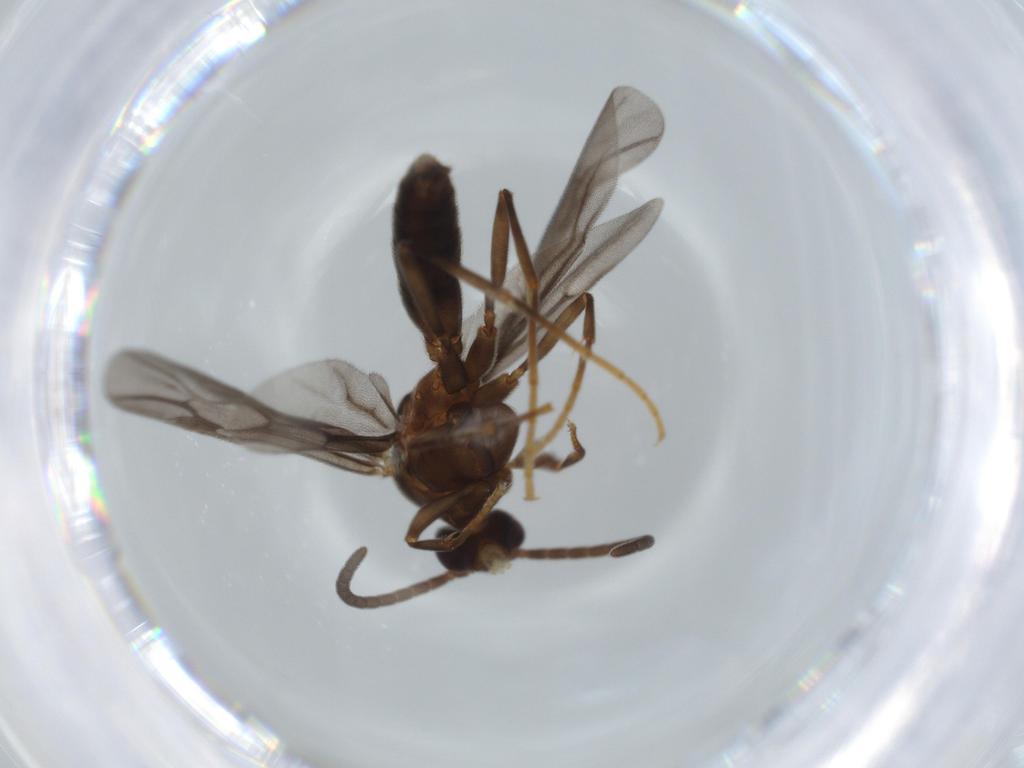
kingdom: Animalia
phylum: Arthropoda
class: Insecta
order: Hymenoptera
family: Formicidae
